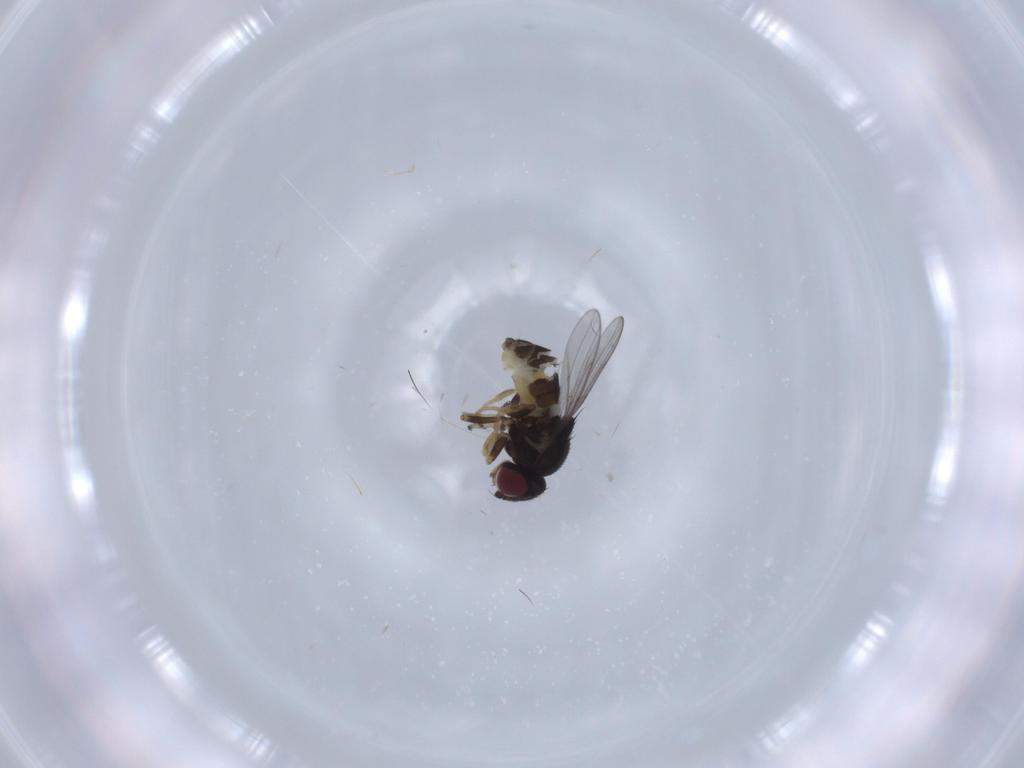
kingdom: Animalia
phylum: Arthropoda
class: Insecta
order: Diptera
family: Chloropidae
